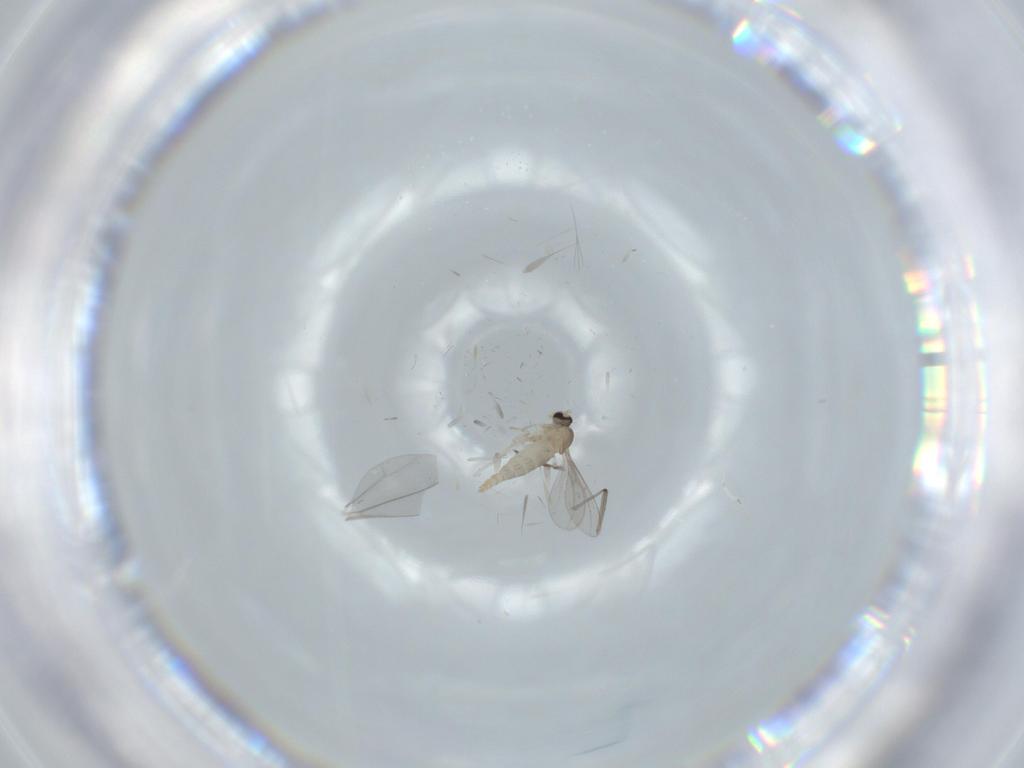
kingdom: Animalia
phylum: Arthropoda
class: Insecta
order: Diptera
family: Cecidomyiidae
